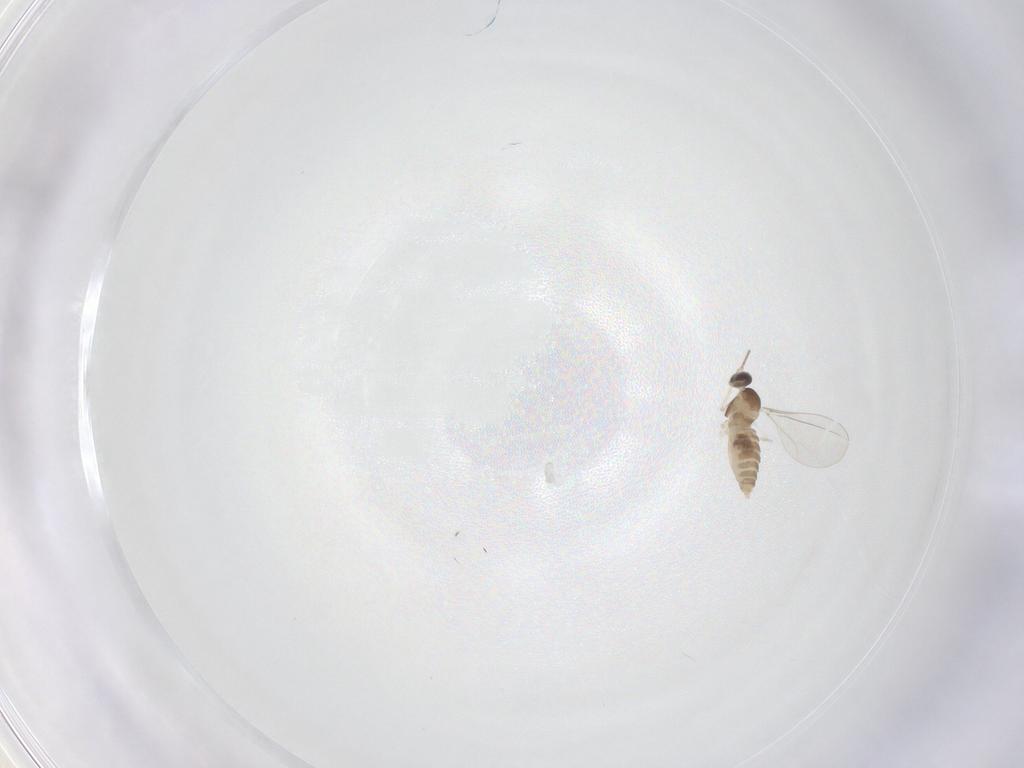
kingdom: Animalia
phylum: Arthropoda
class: Insecta
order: Diptera
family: Cecidomyiidae
